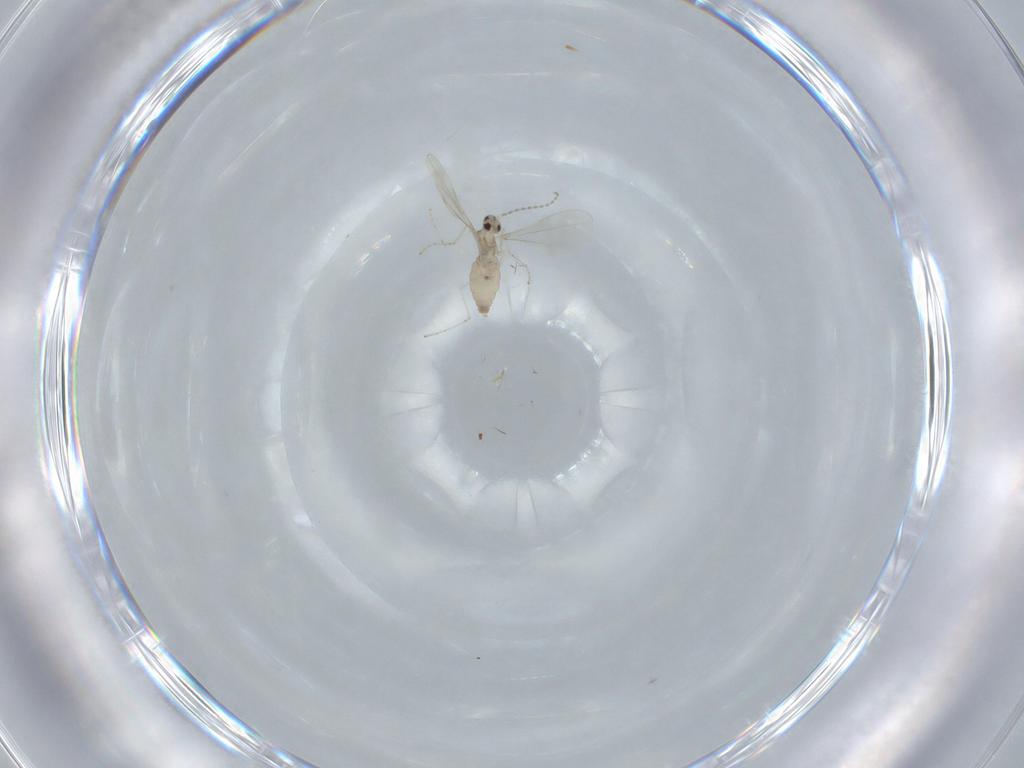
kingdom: Animalia
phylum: Arthropoda
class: Insecta
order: Diptera
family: Cecidomyiidae
